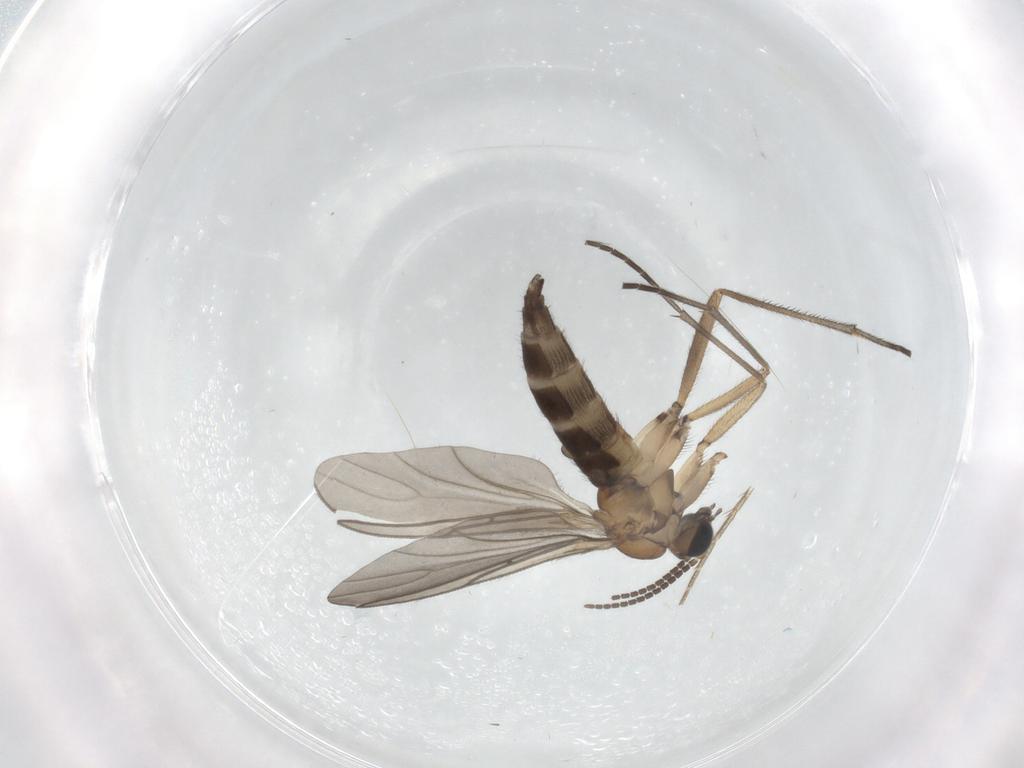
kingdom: Animalia
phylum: Arthropoda
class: Insecta
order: Diptera
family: Sciaridae
